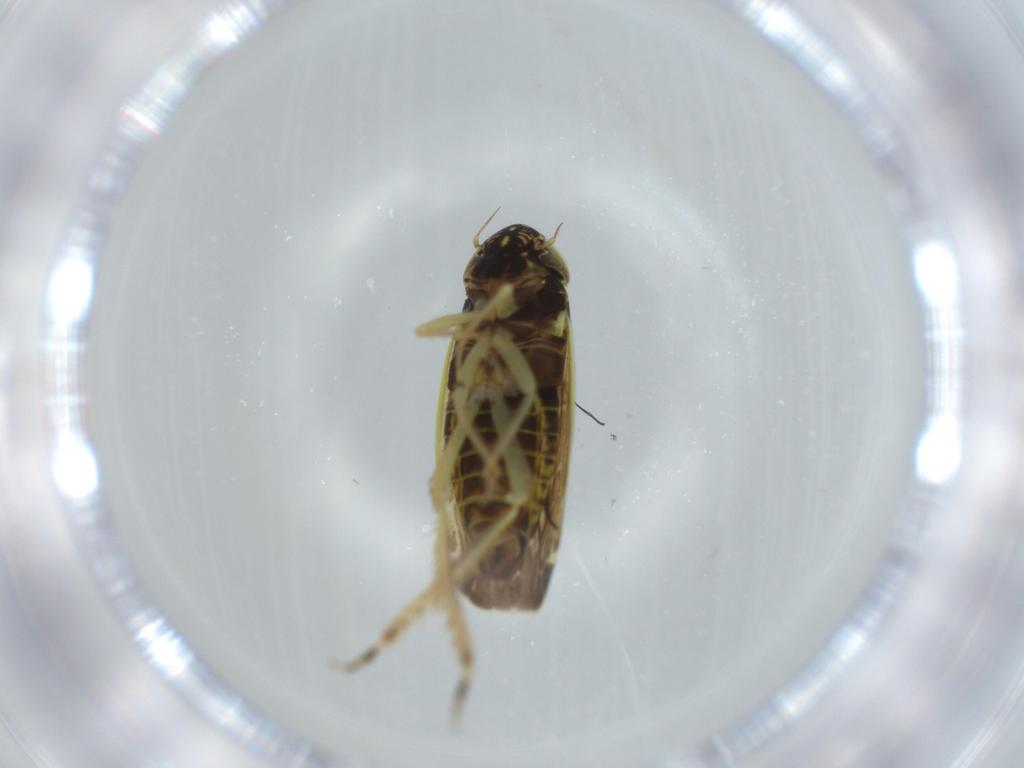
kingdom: Animalia
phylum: Arthropoda
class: Insecta
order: Hemiptera
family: Cicadellidae
